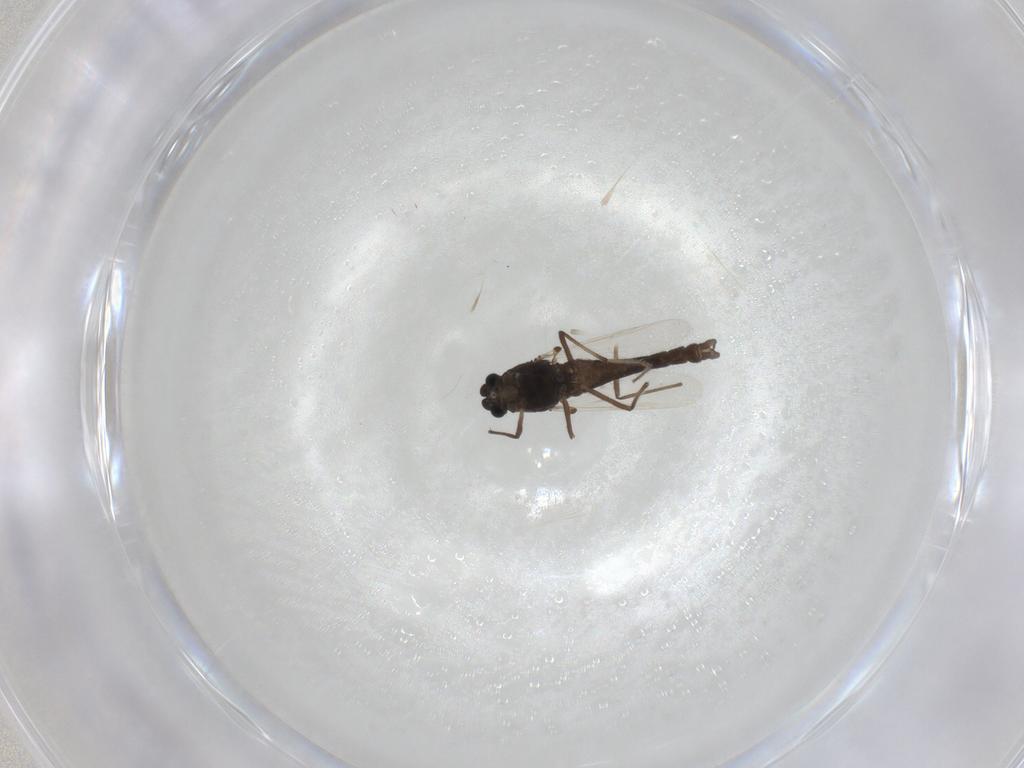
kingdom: Animalia
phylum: Arthropoda
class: Insecta
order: Diptera
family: Chironomidae
